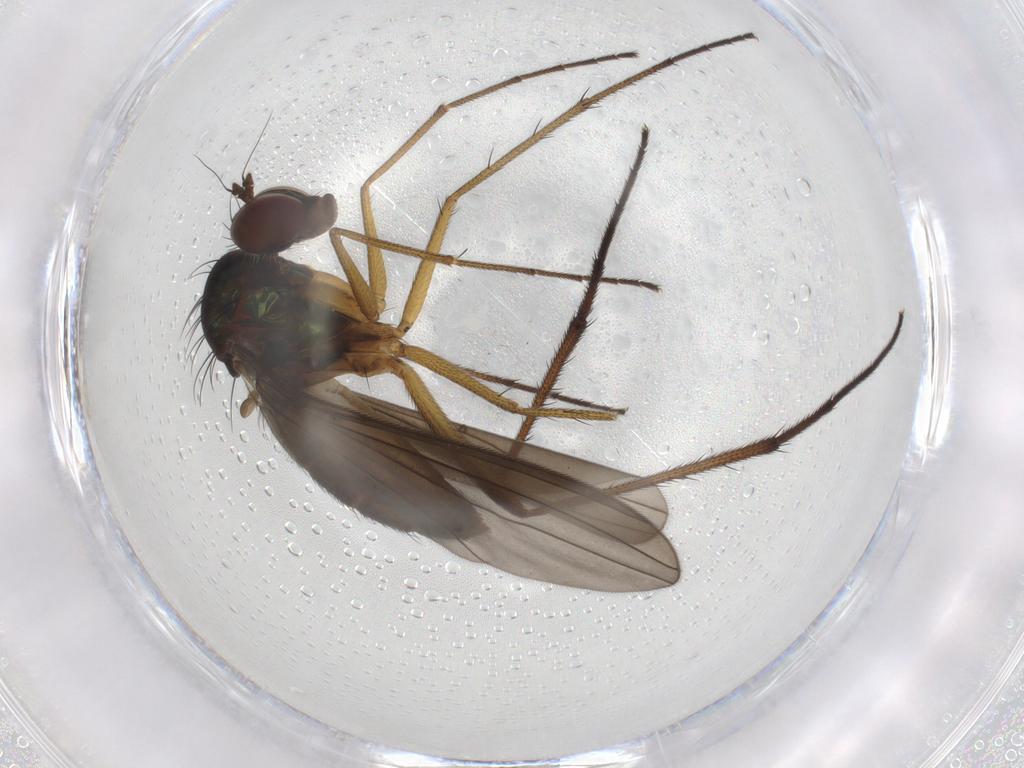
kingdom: Animalia
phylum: Arthropoda
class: Insecta
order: Diptera
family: Dolichopodidae
